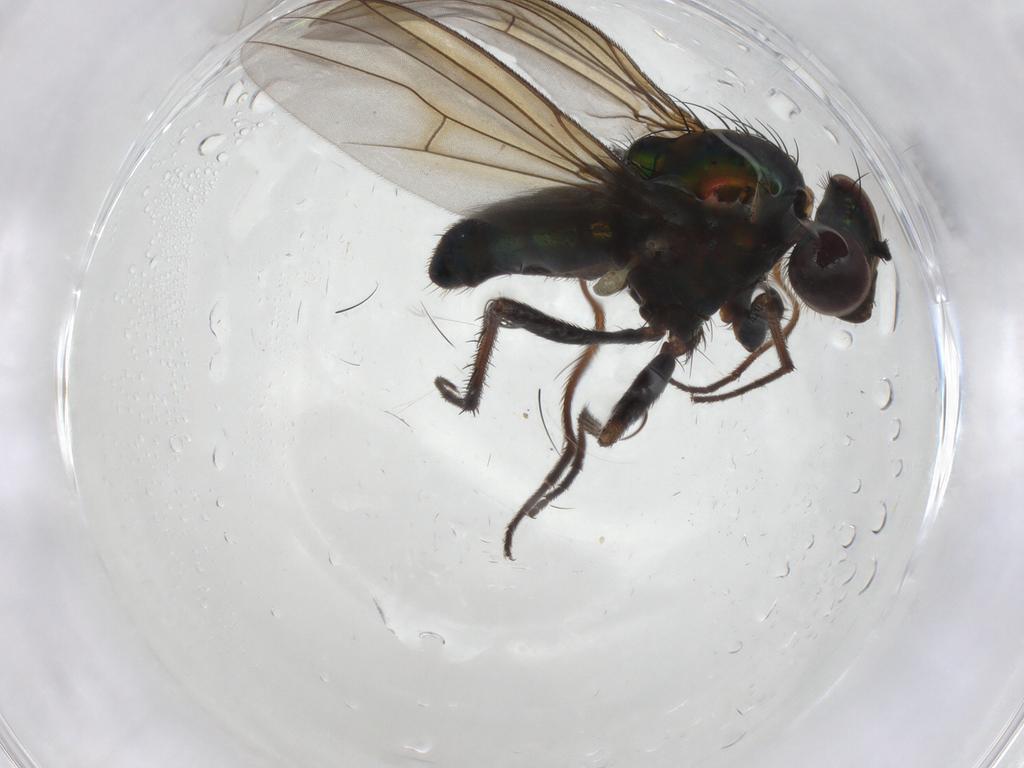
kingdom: Animalia
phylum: Arthropoda
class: Insecta
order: Diptera
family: Dolichopodidae
